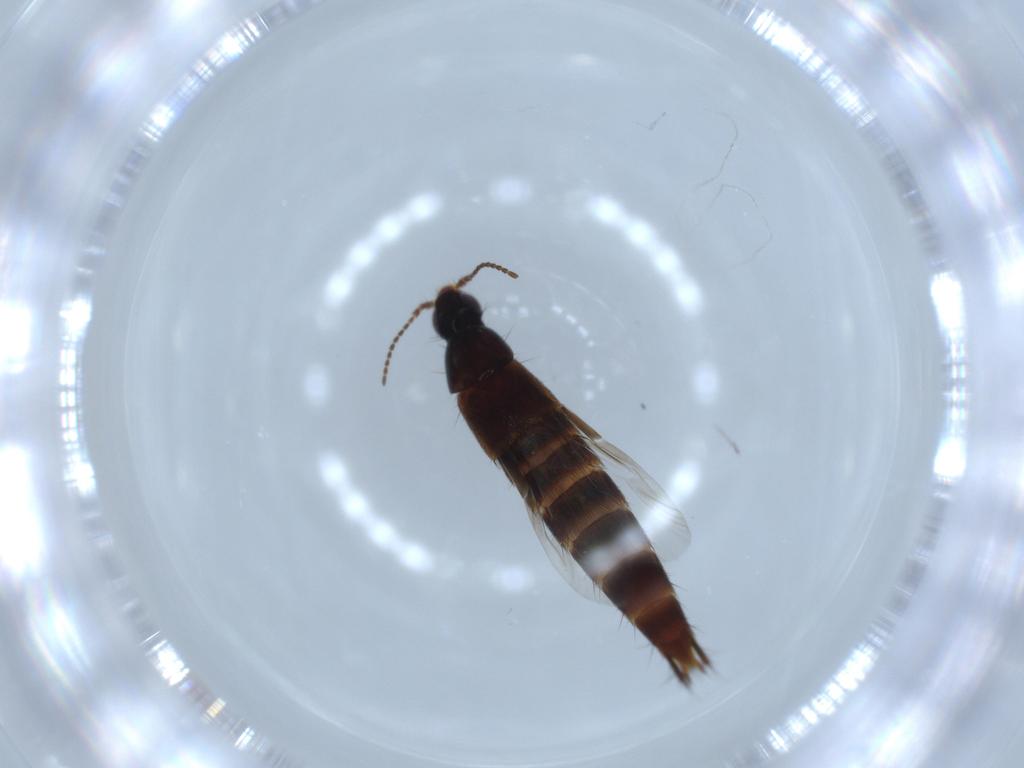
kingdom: Animalia
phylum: Arthropoda
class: Insecta
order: Coleoptera
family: Staphylinidae
